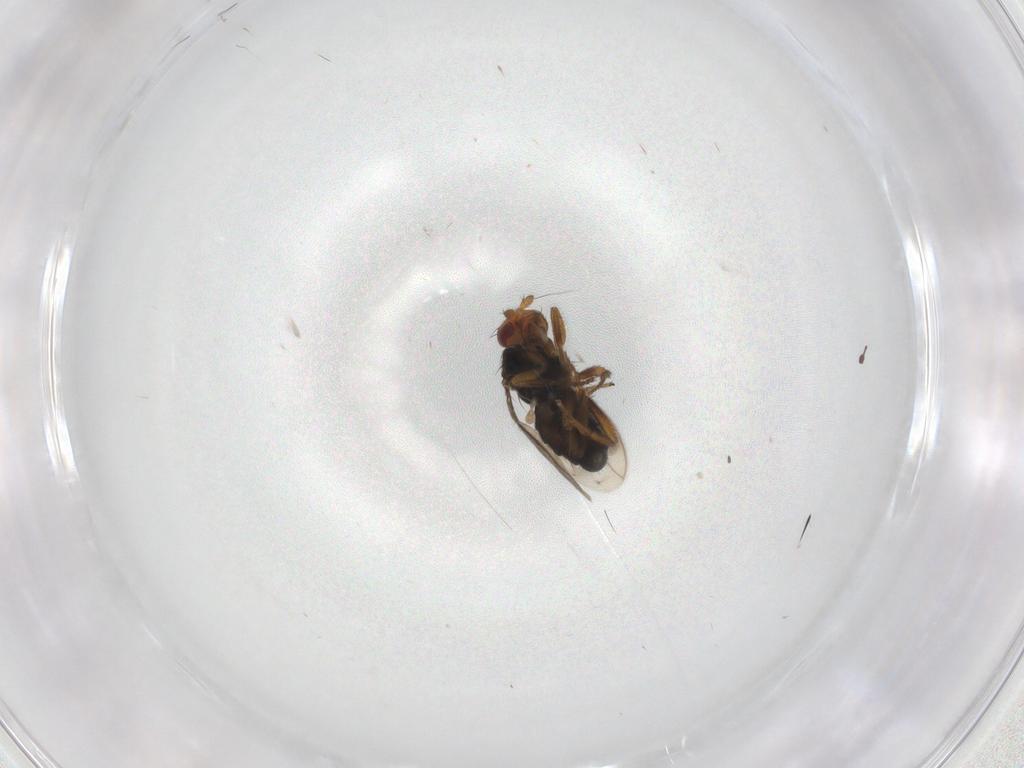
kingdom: Animalia
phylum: Arthropoda
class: Insecta
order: Diptera
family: Sphaeroceridae
